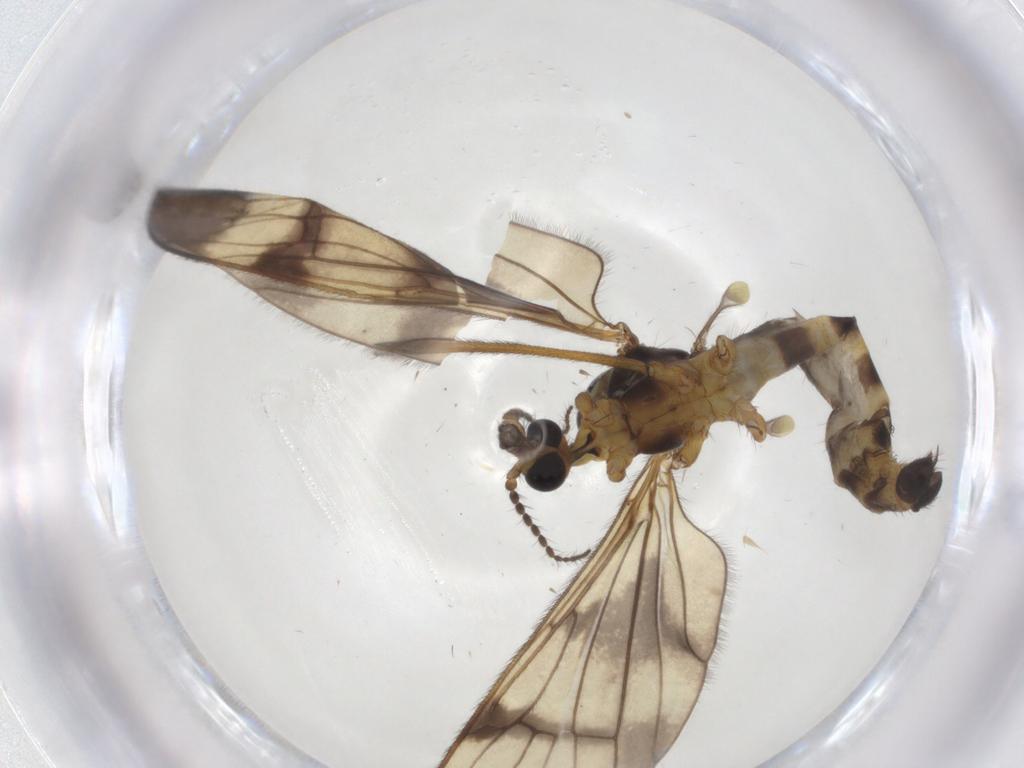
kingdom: Animalia
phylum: Arthropoda
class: Insecta
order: Diptera
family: Limoniidae
